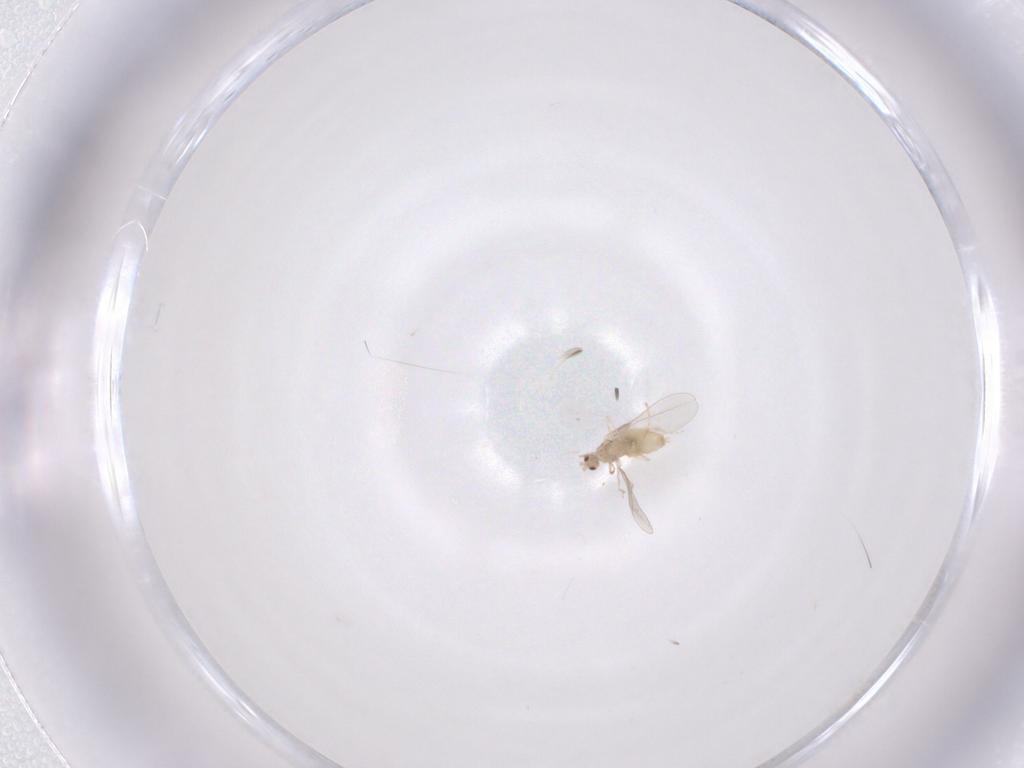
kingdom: Animalia
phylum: Arthropoda
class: Insecta
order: Diptera
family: Cecidomyiidae
